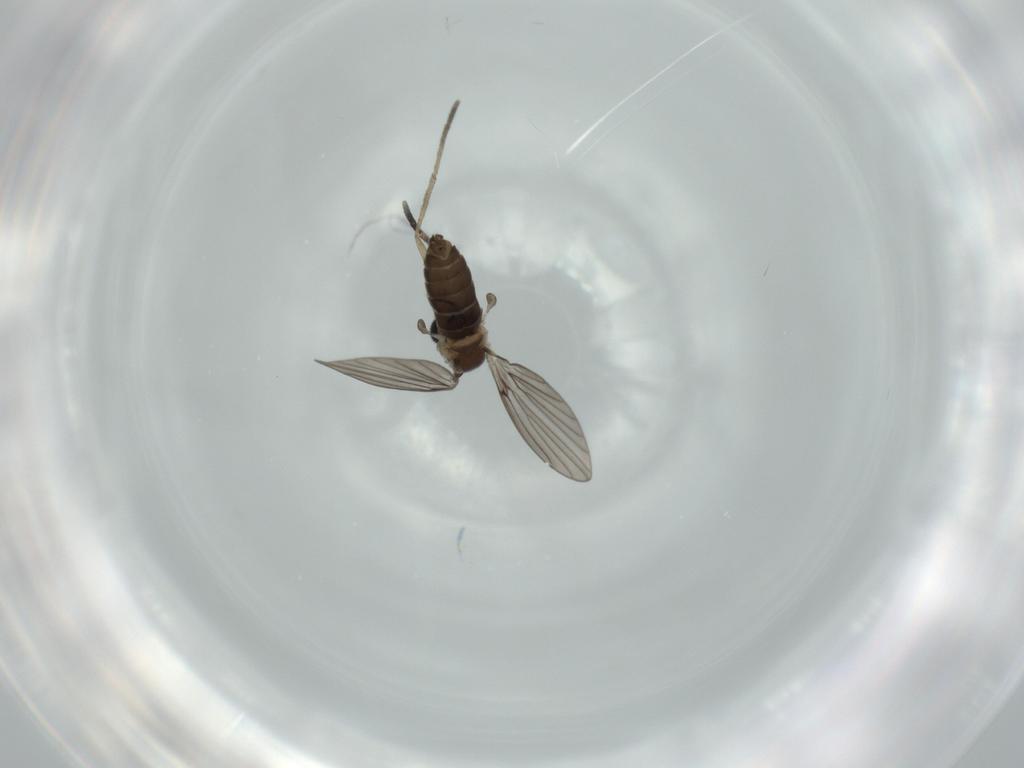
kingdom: Animalia
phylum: Arthropoda
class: Insecta
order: Diptera
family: Psychodidae
